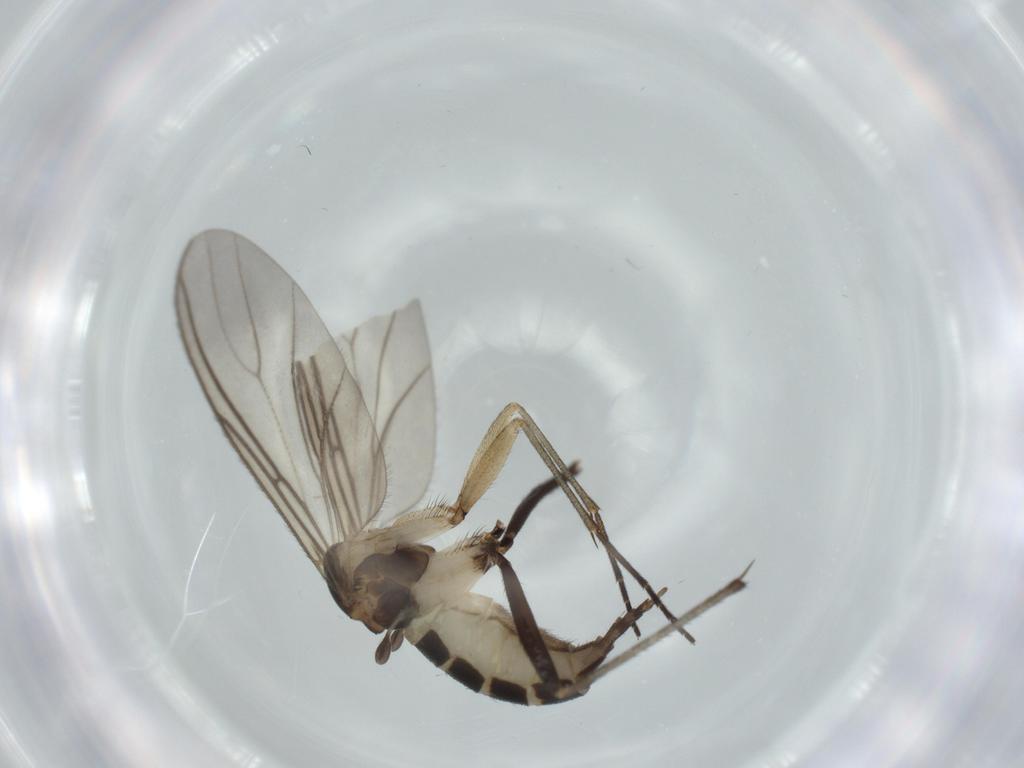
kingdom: Animalia
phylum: Arthropoda
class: Insecta
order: Diptera
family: Sciaridae
